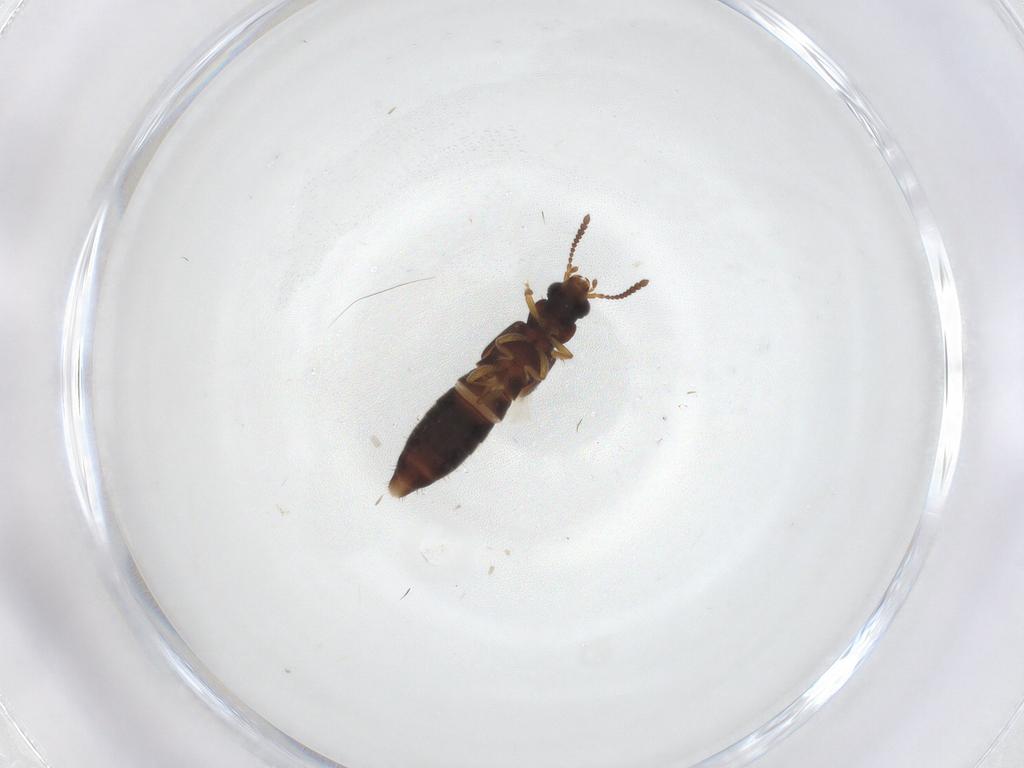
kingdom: Animalia
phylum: Arthropoda
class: Insecta
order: Coleoptera
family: Staphylinidae
